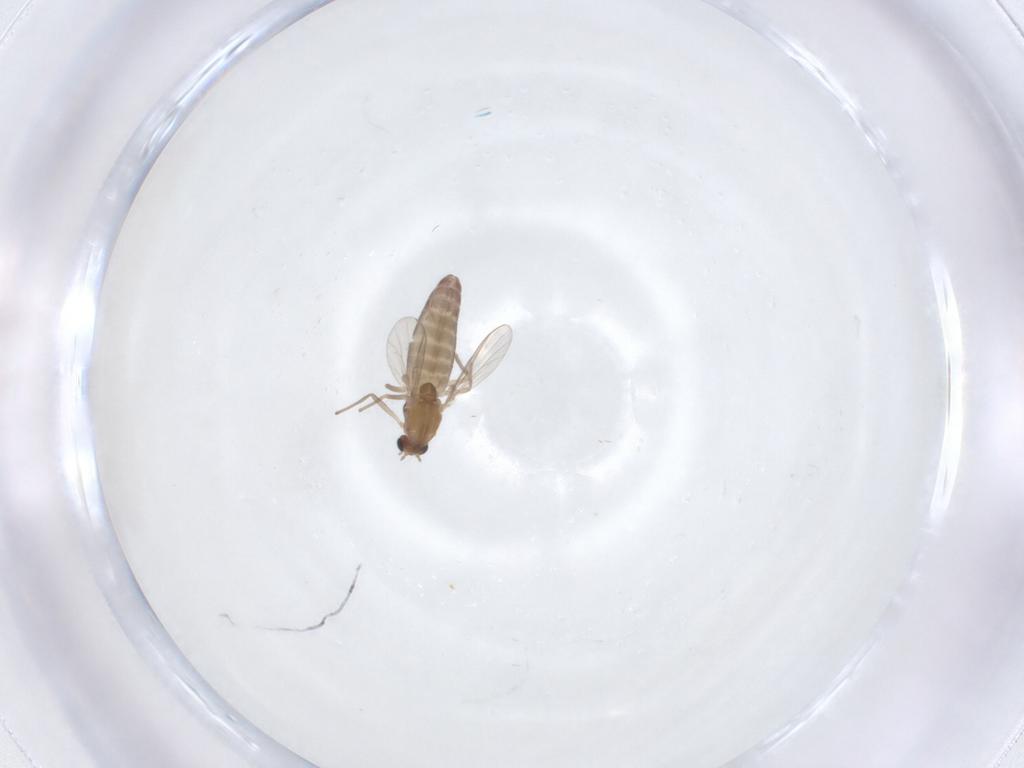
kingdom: Animalia
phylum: Arthropoda
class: Insecta
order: Diptera
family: Chironomidae
